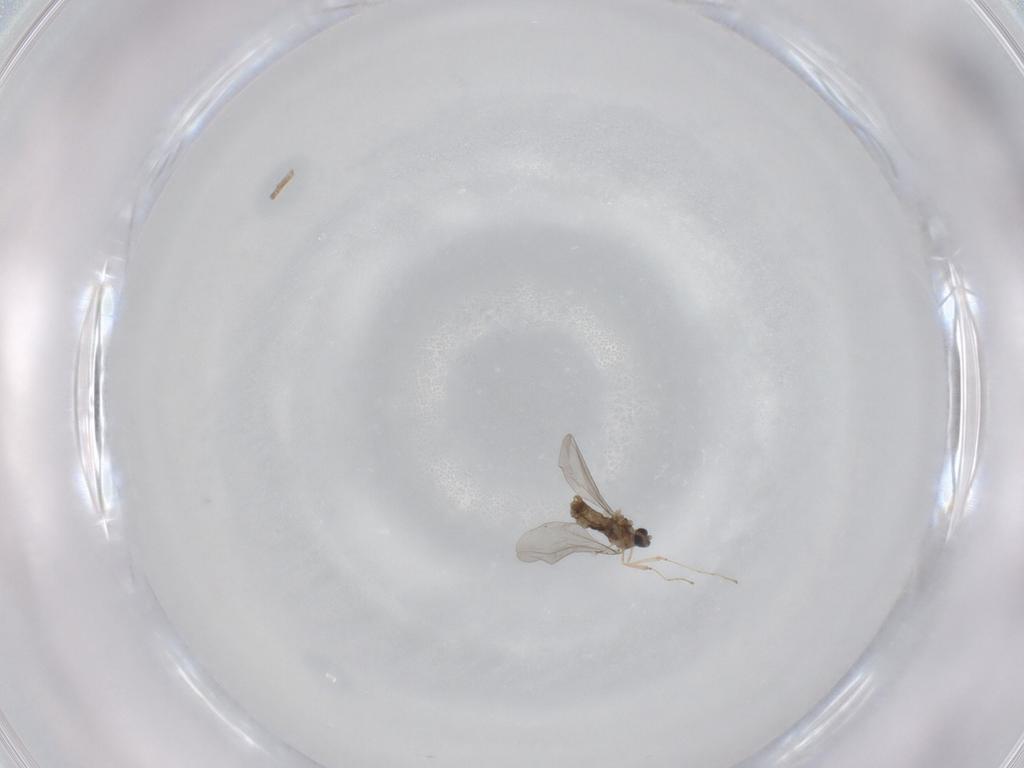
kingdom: Animalia
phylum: Arthropoda
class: Insecta
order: Diptera
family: Cecidomyiidae
